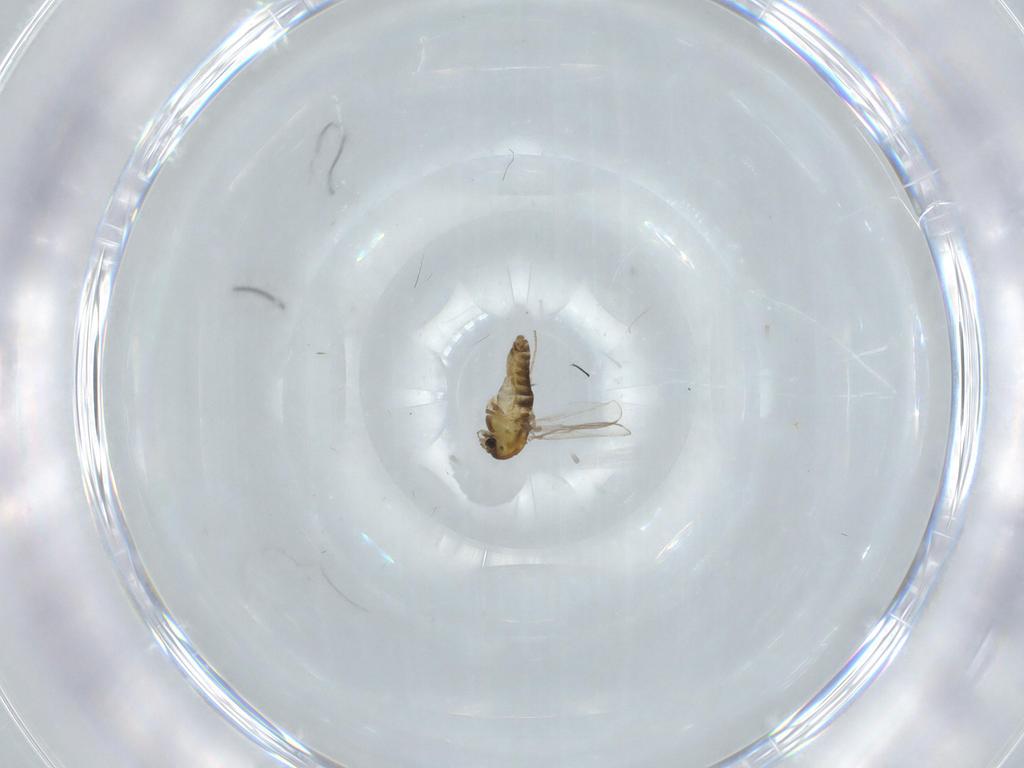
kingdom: Animalia
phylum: Arthropoda
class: Insecta
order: Diptera
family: Chironomidae
